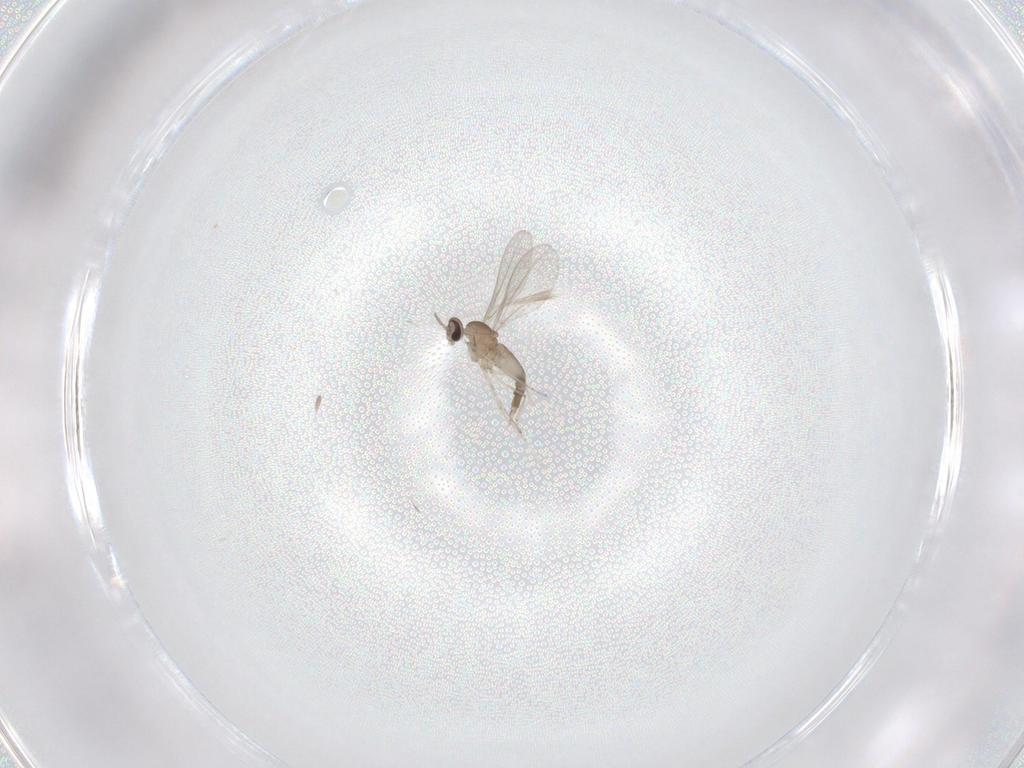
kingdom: Animalia
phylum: Arthropoda
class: Insecta
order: Diptera
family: Cecidomyiidae
